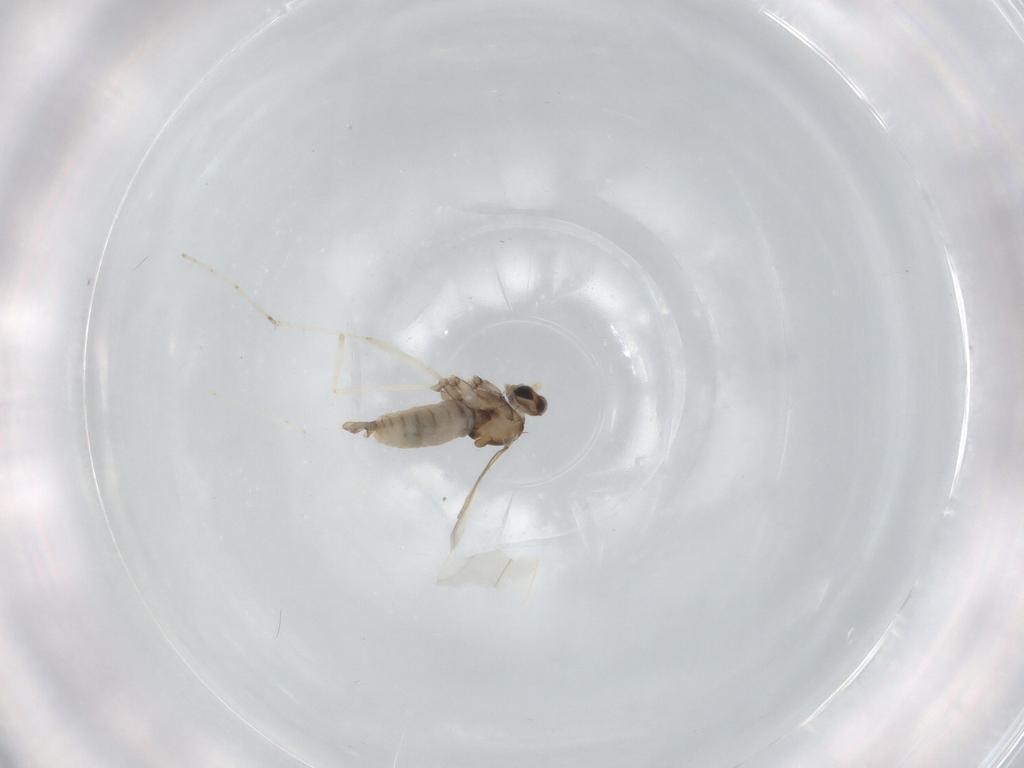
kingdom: Animalia
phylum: Arthropoda
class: Insecta
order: Diptera
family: Cecidomyiidae
